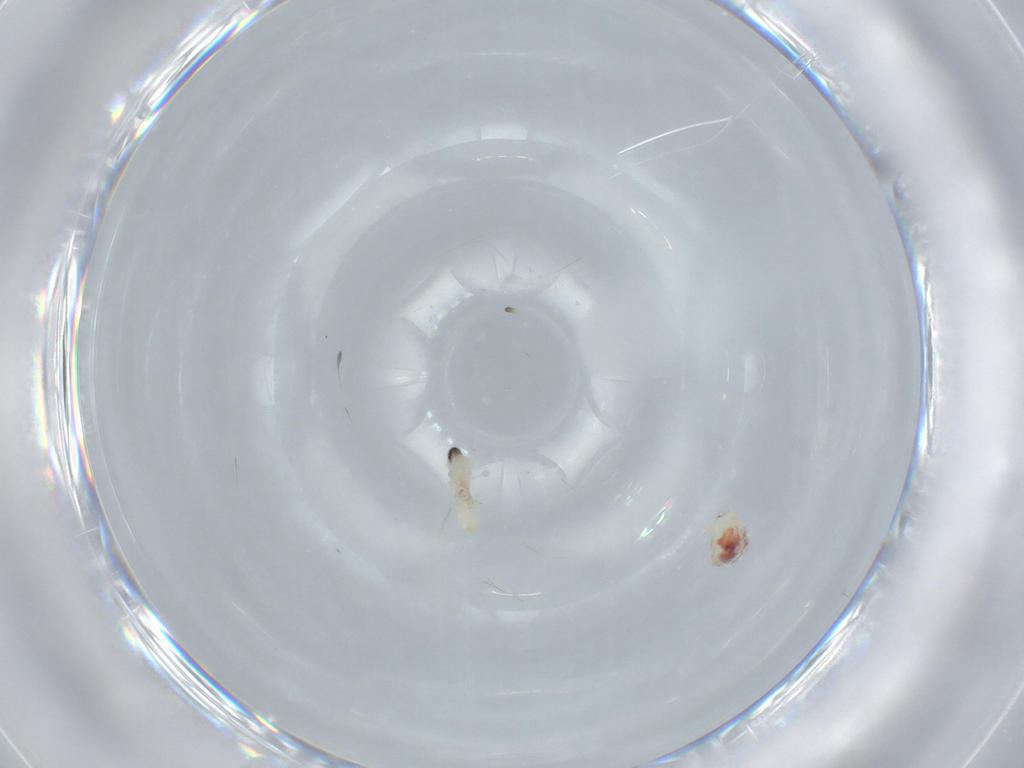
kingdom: Animalia
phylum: Arthropoda
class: Insecta
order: Diptera
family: Cecidomyiidae
